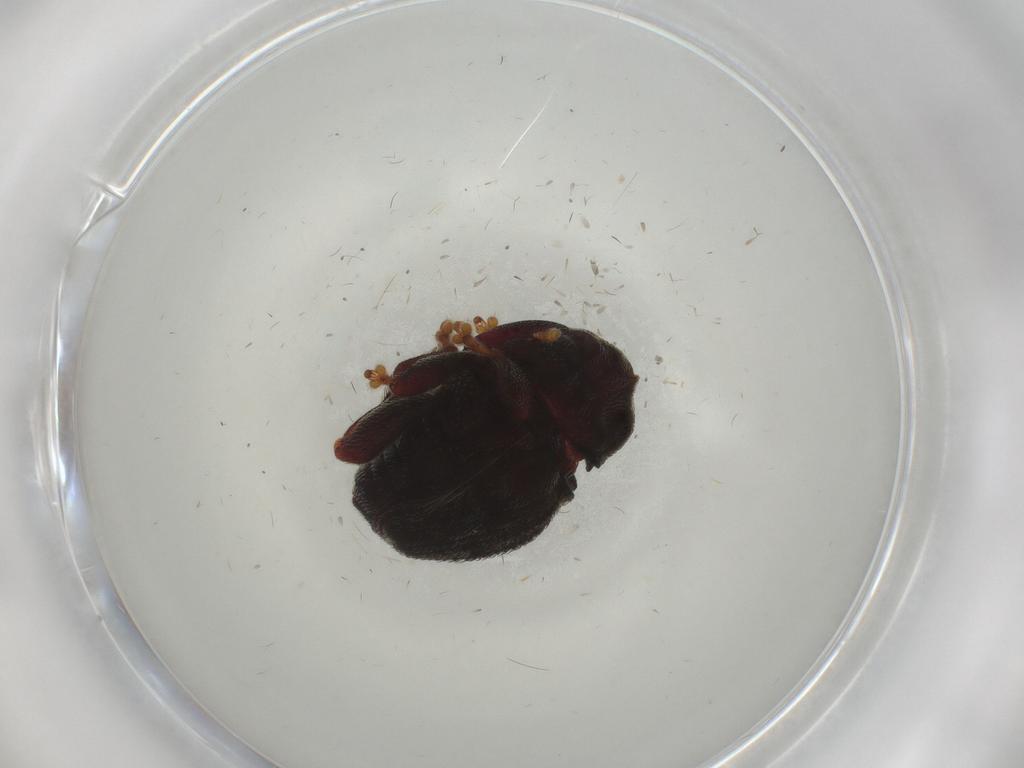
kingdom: Animalia
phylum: Arthropoda
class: Insecta
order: Coleoptera
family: Curculionidae
